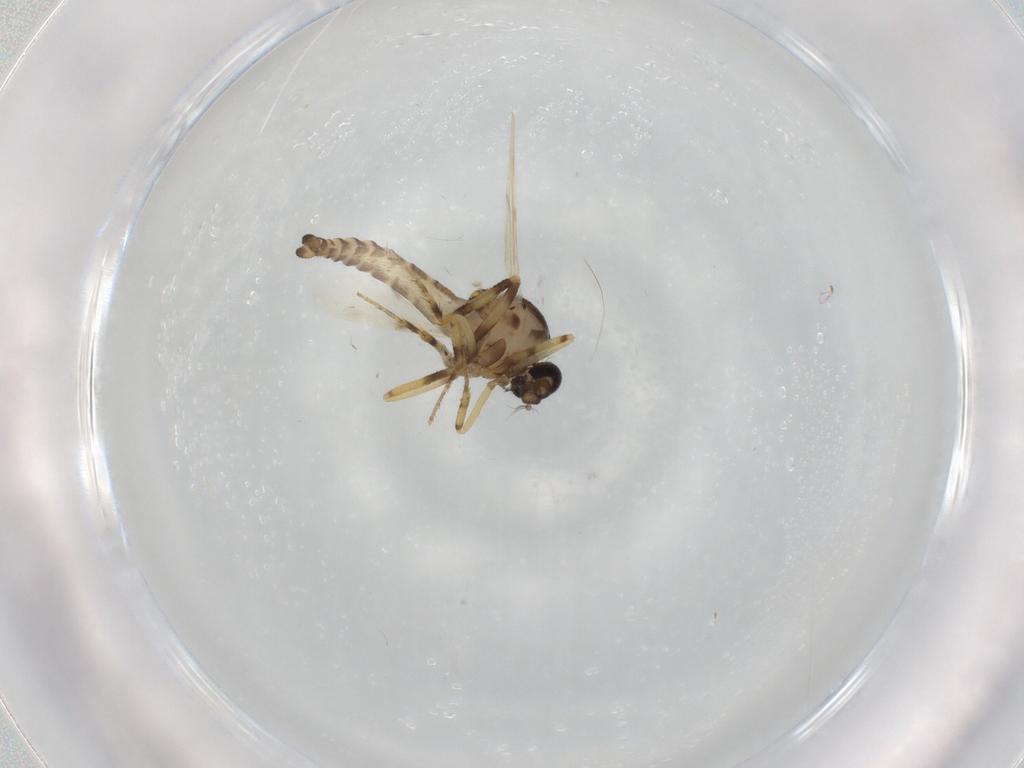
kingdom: Animalia
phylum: Arthropoda
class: Insecta
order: Diptera
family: Ceratopogonidae
